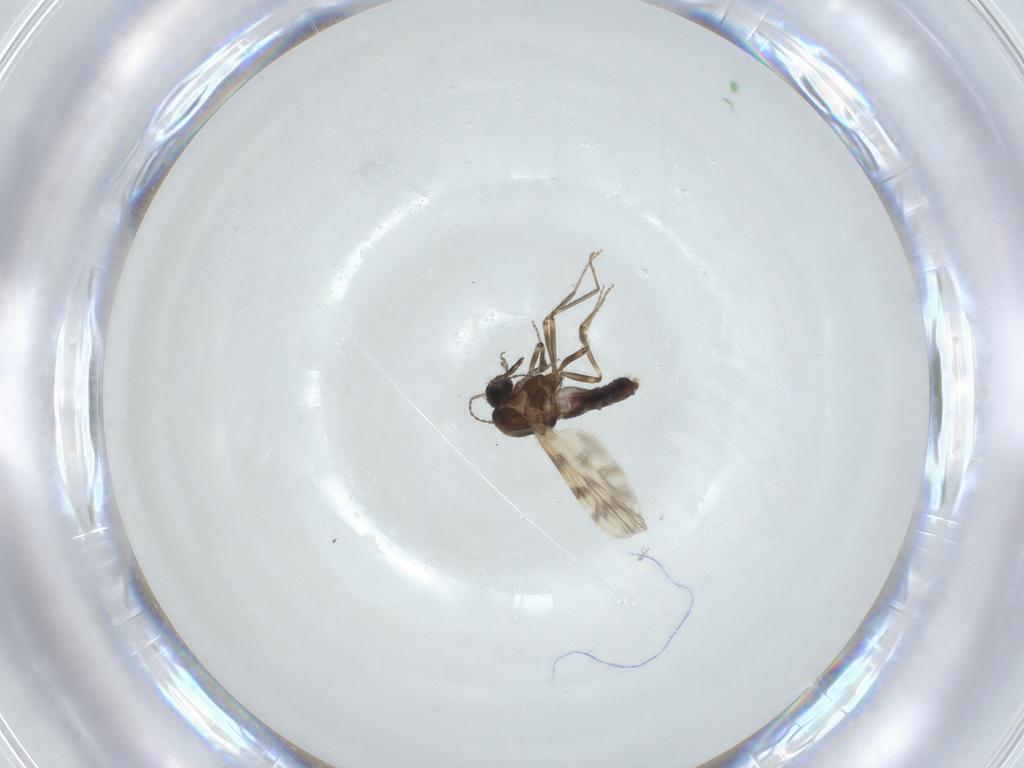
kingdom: Animalia
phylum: Arthropoda
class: Insecta
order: Diptera
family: Ceratopogonidae
